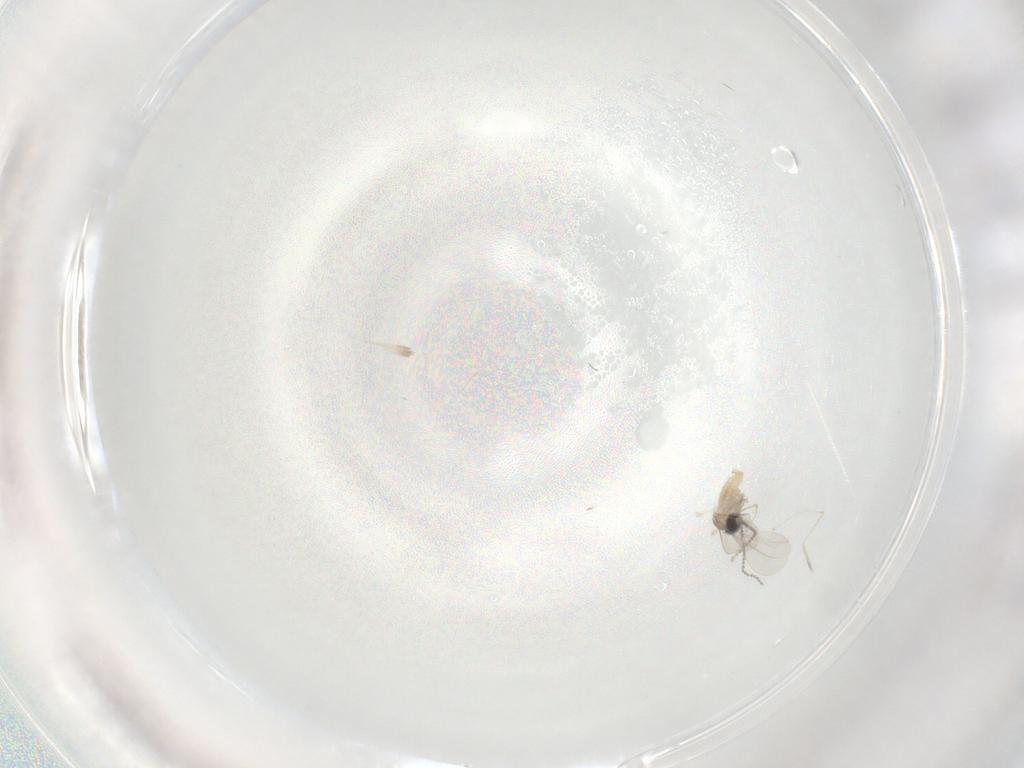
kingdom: Animalia
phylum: Arthropoda
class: Insecta
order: Diptera
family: Cecidomyiidae
